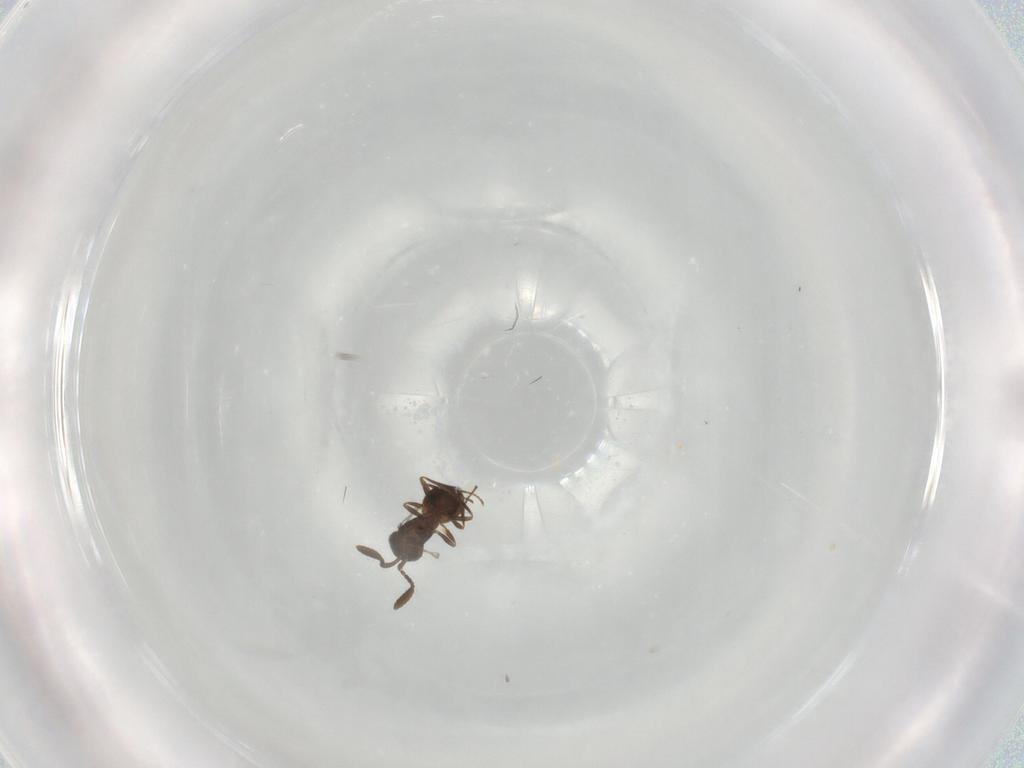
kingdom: Animalia
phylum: Arthropoda
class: Insecta
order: Hymenoptera
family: Scelionidae
